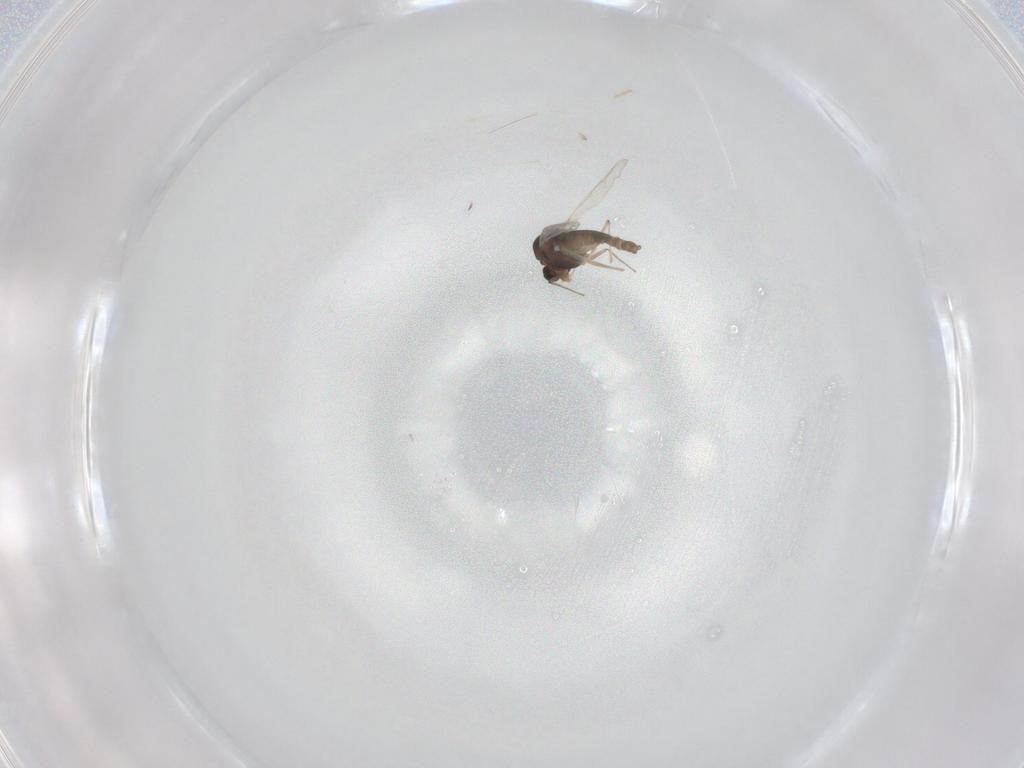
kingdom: Animalia
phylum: Arthropoda
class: Insecta
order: Diptera
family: Chironomidae
